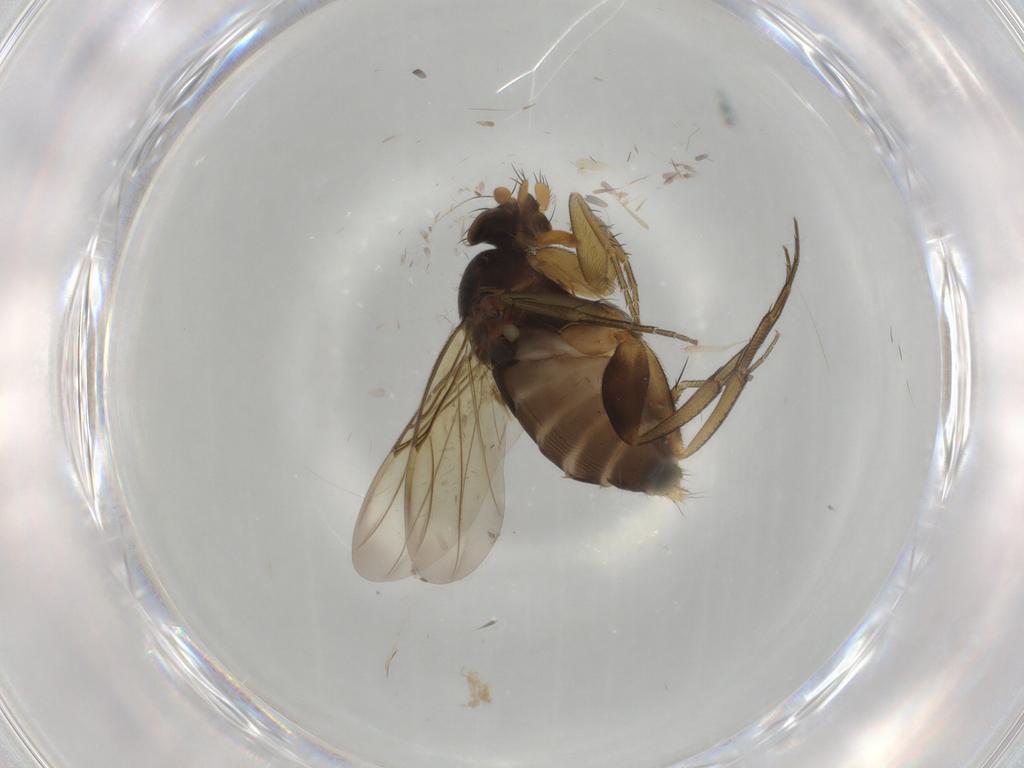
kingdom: Animalia
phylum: Arthropoda
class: Insecta
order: Diptera
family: Phoridae
